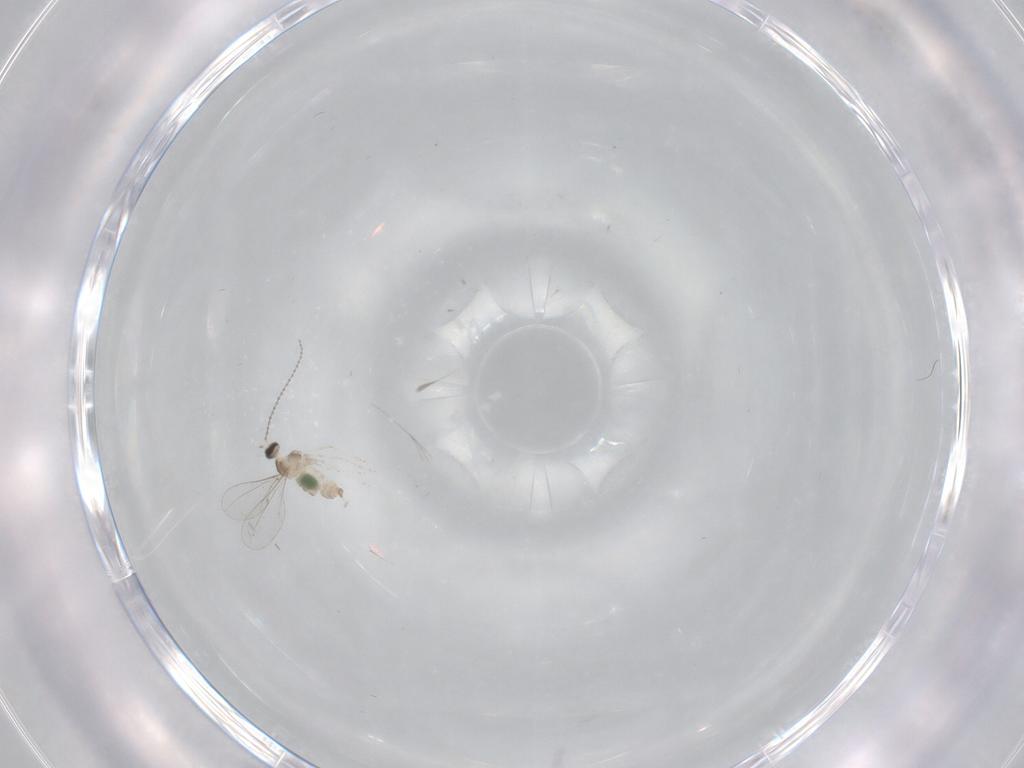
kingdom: Animalia
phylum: Arthropoda
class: Insecta
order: Diptera
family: Cecidomyiidae
